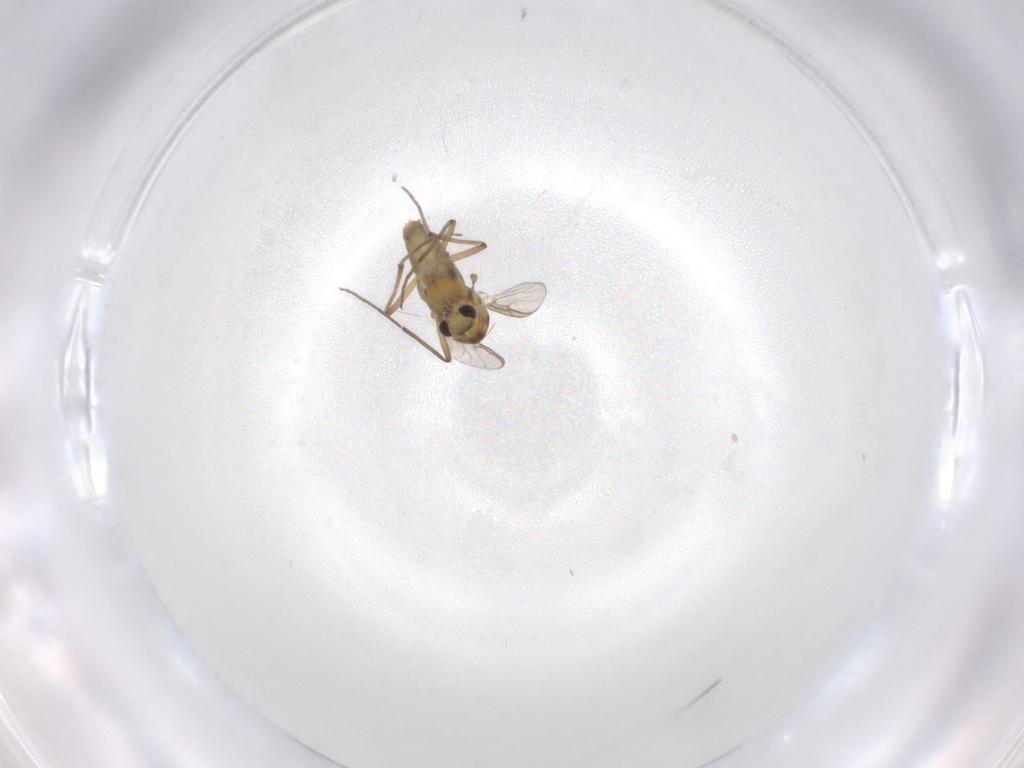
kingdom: Animalia
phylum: Arthropoda
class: Insecta
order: Diptera
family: Chironomidae
